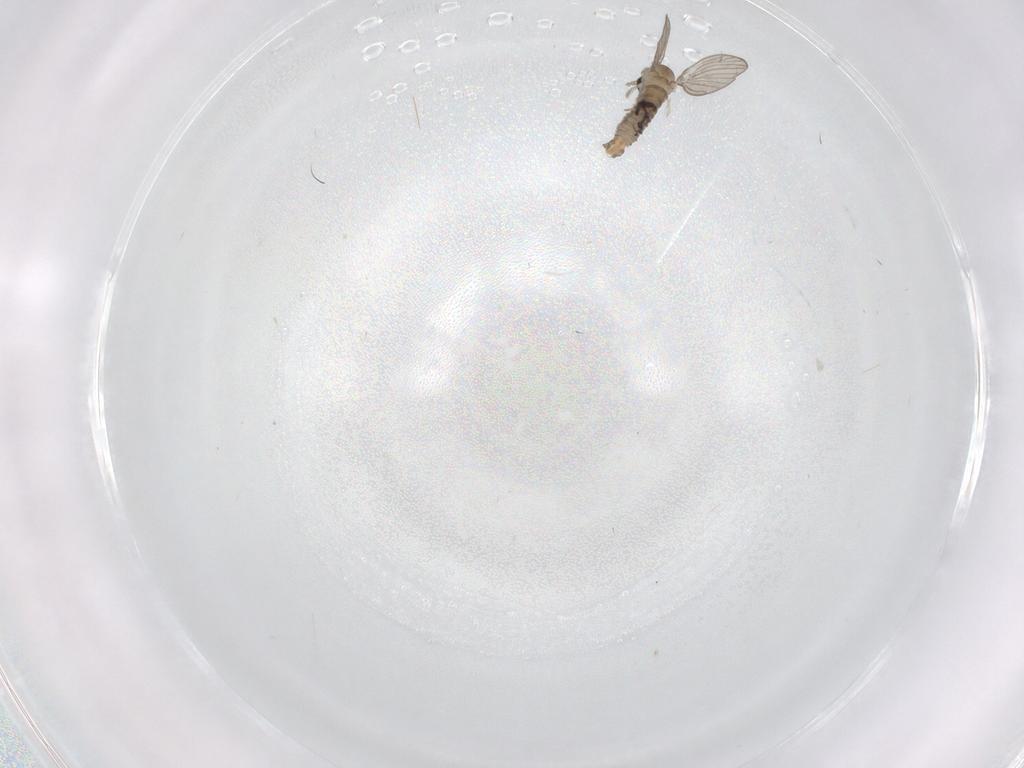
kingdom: Animalia
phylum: Arthropoda
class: Insecta
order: Diptera
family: Psychodidae
